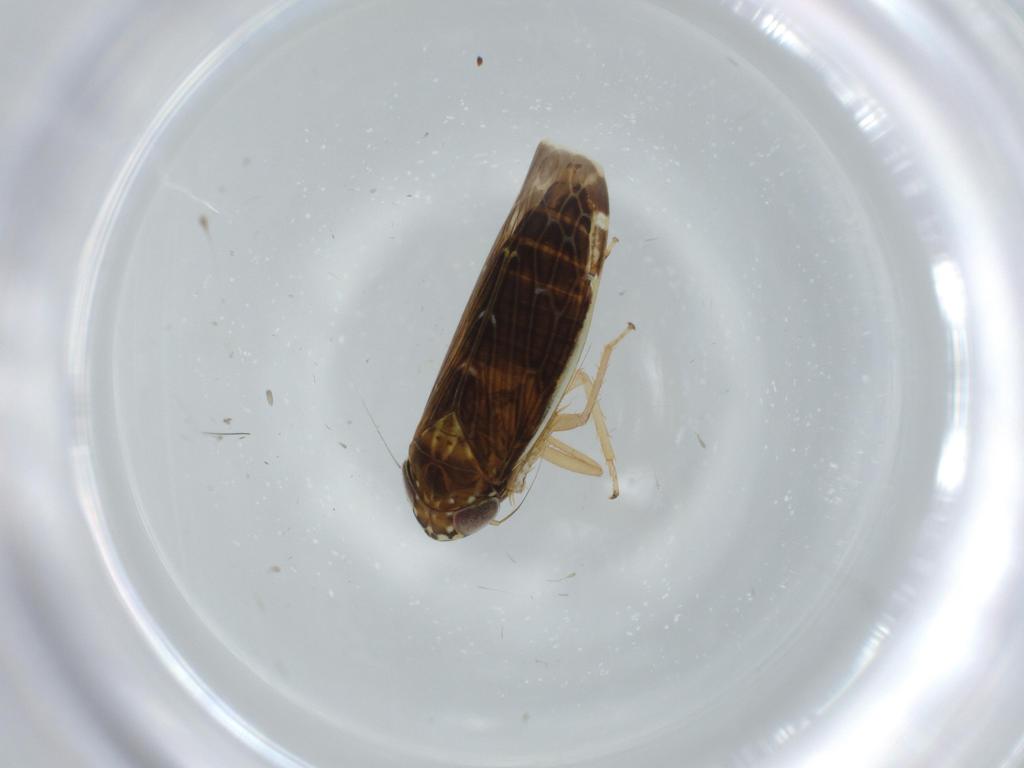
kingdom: Animalia
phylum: Arthropoda
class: Insecta
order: Hemiptera
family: Cicadellidae
